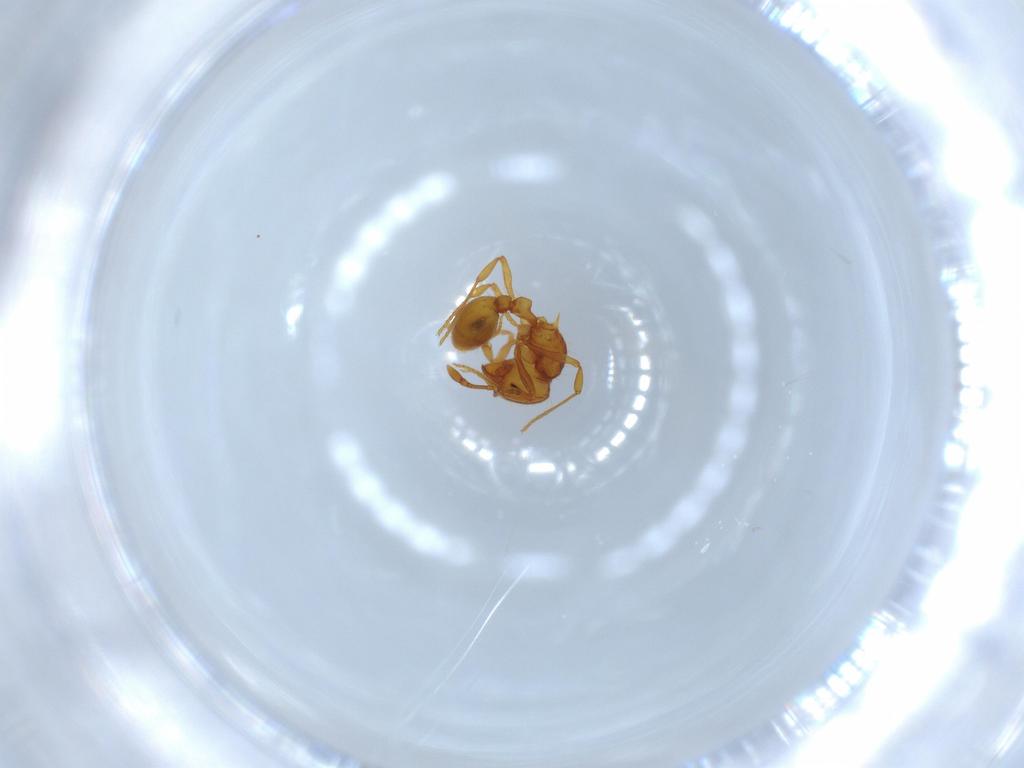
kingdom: Animalia
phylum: Arthropoda
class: Insecta
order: Hymenoptera
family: Formicidae
